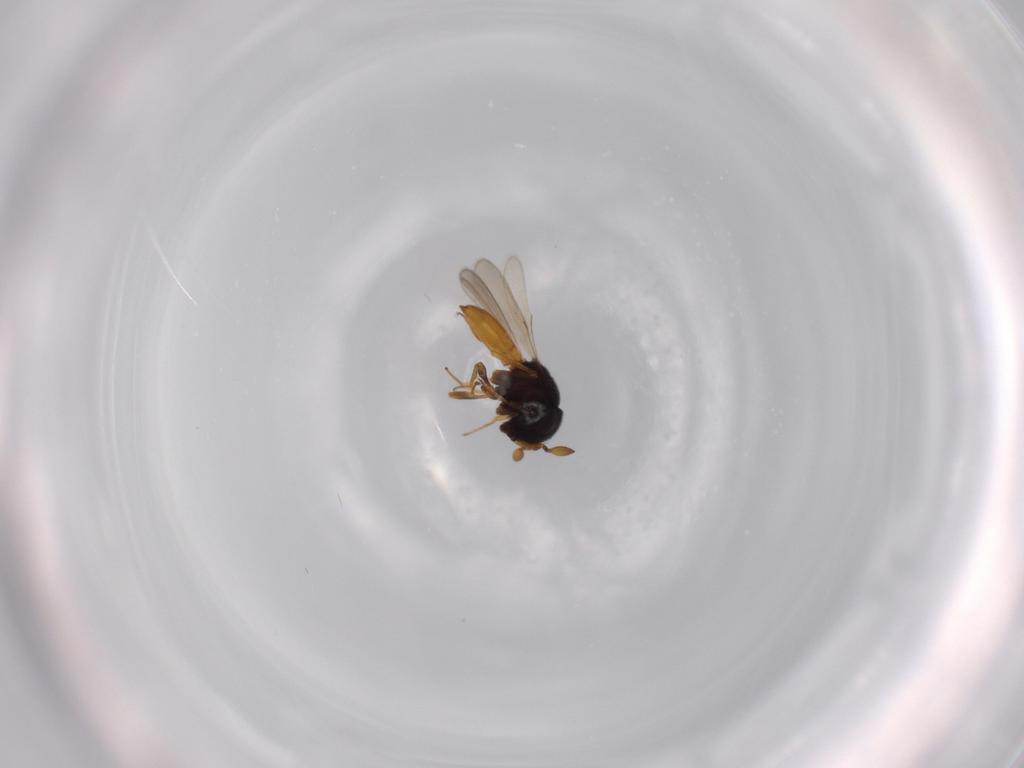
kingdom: Animalia
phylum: Arthropoda
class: Insecta
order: Hymenoptera
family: Scelionidae
